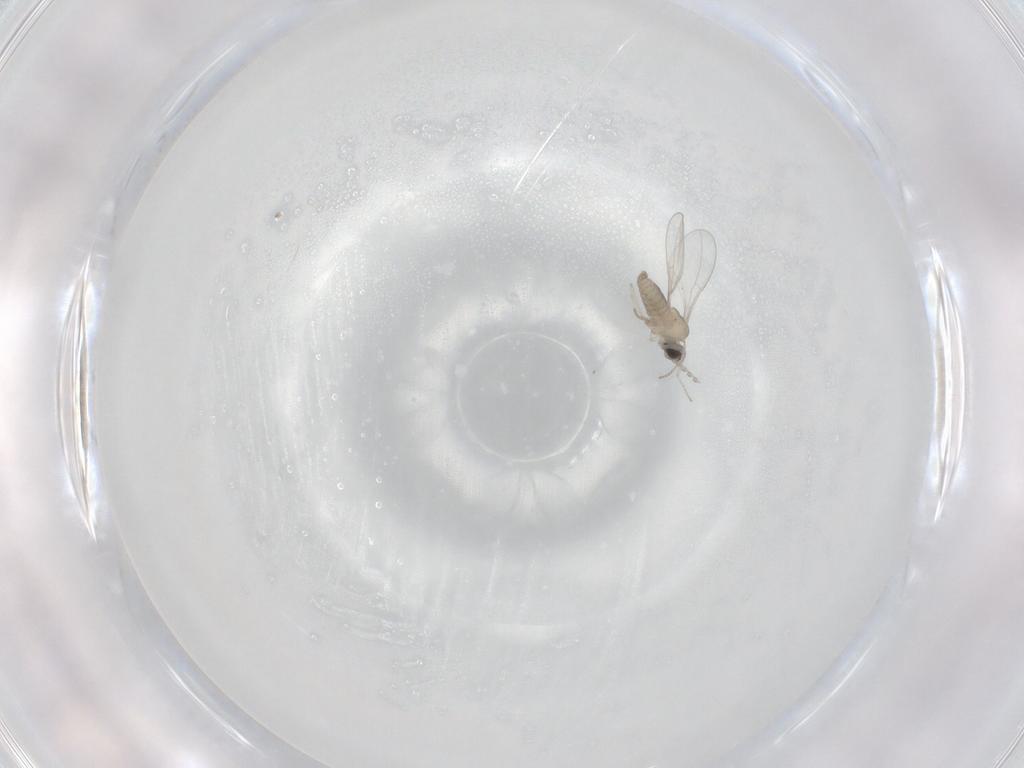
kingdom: Animalia
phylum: Arthropoda
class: Insecta
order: Diptera
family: Cecidomyiidae
